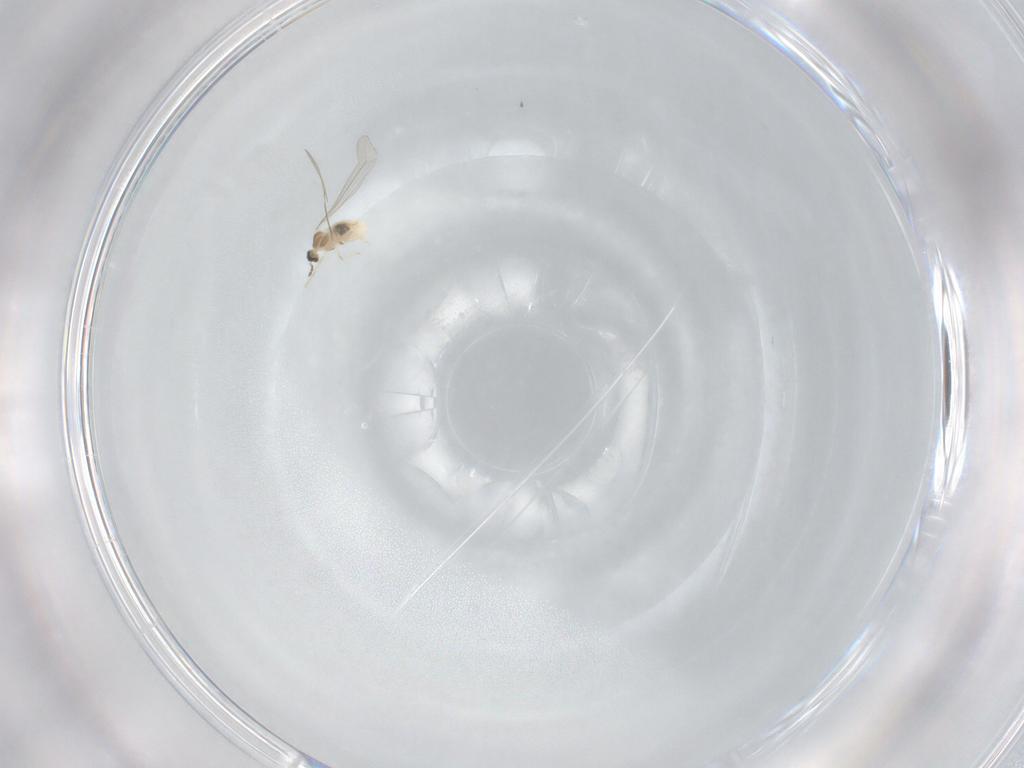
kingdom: Animalia
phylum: Arthropoda
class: Insecta
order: Diptera
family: Cecidomyiidae
